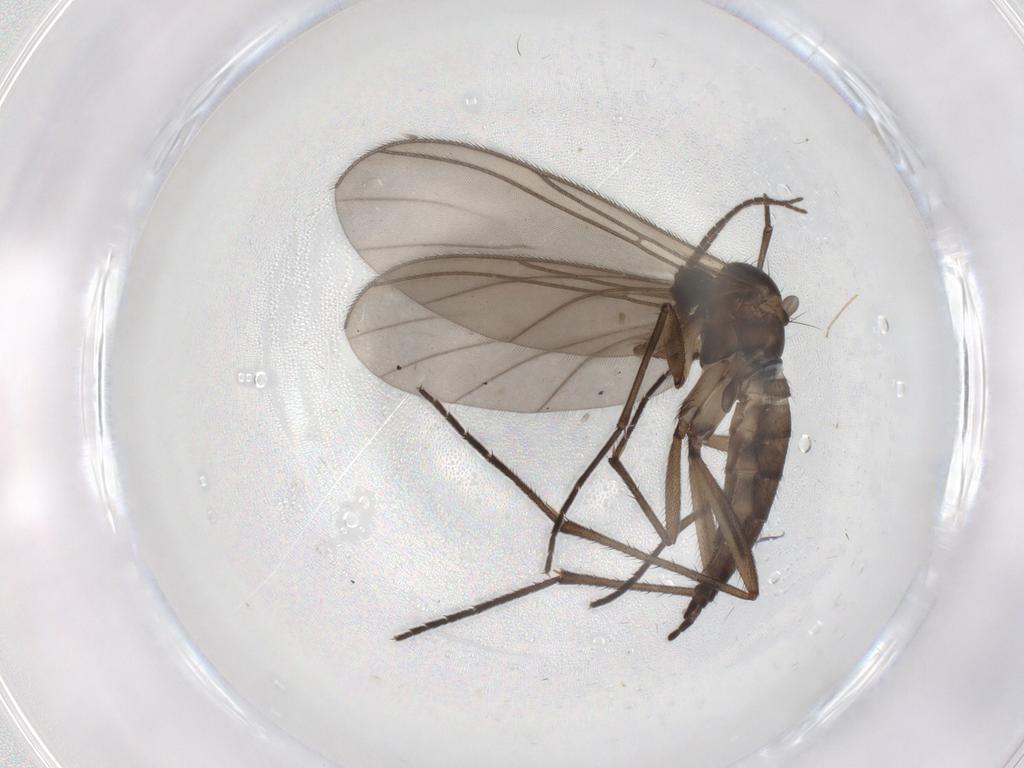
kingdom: Animalia
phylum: Arthropoda
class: Insecta
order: Diptera
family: Sciaridae
